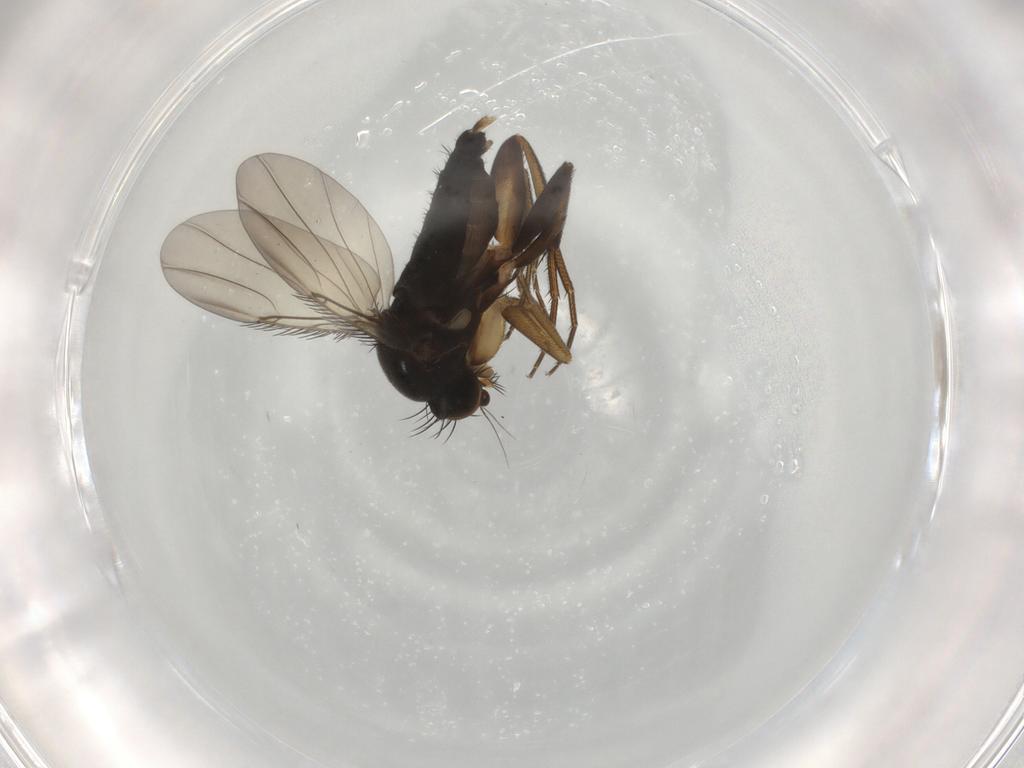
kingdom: Animalia
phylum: Arthropoda
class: Insecta
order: Diptera
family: Phoridae
